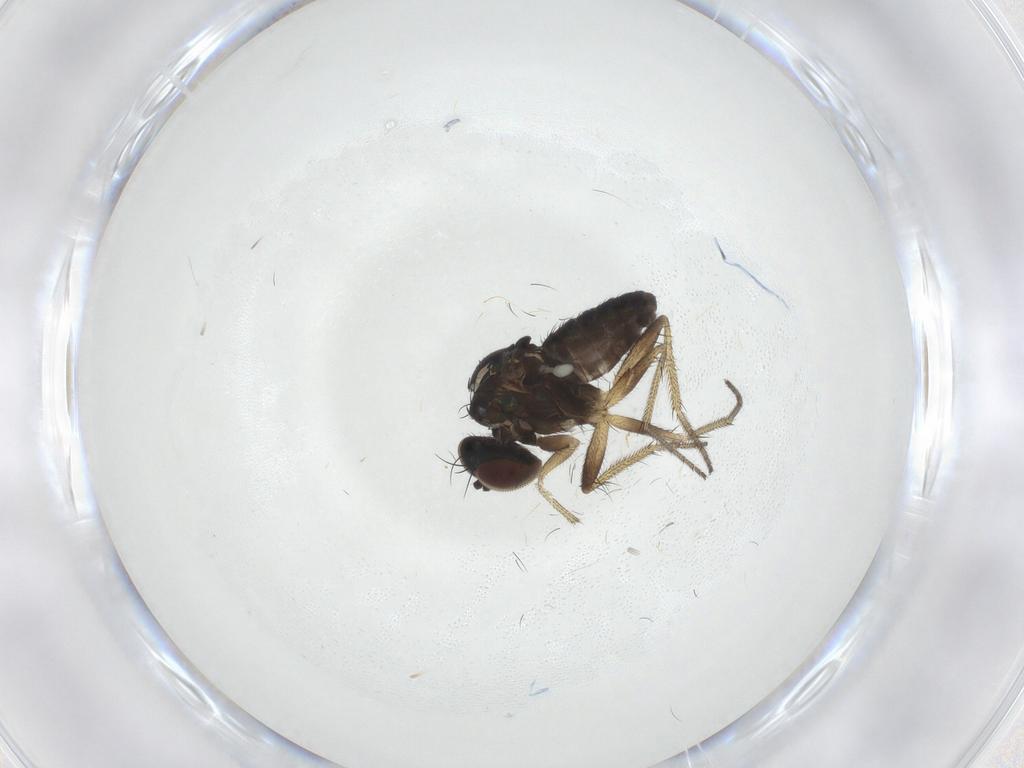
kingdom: Animalia
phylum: Arthropoda
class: Insecta
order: Diptera
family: Dolichopodidae
